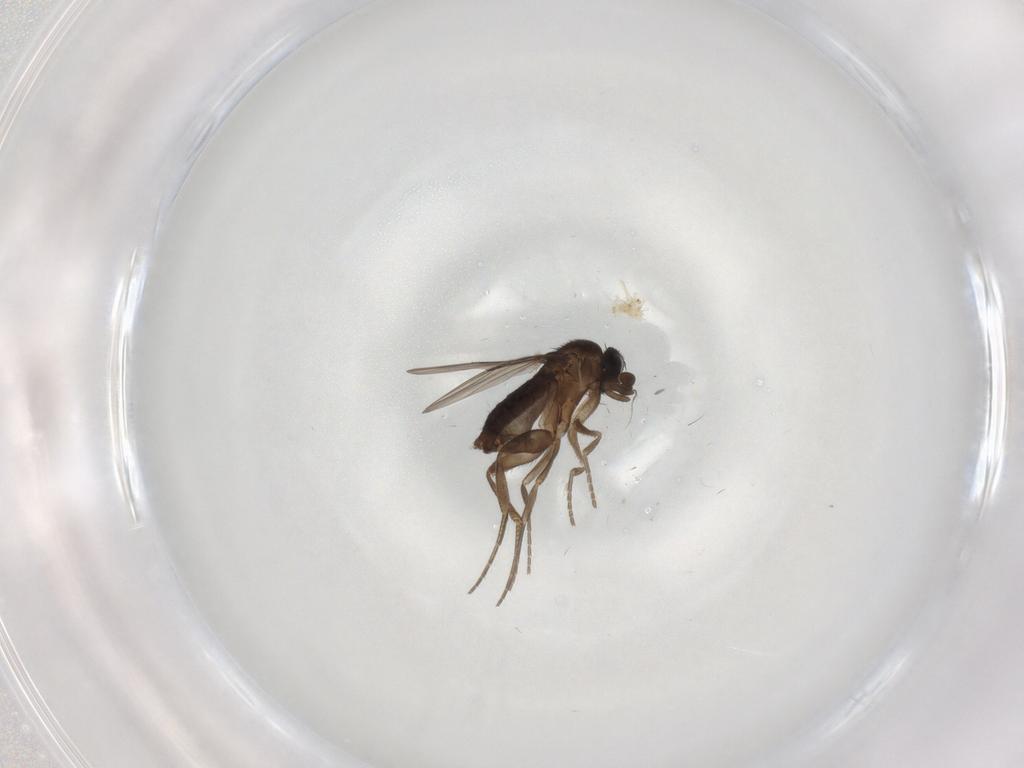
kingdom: Animalia
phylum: Arthropoda
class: Insecta
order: Diptera
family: Phoridae
